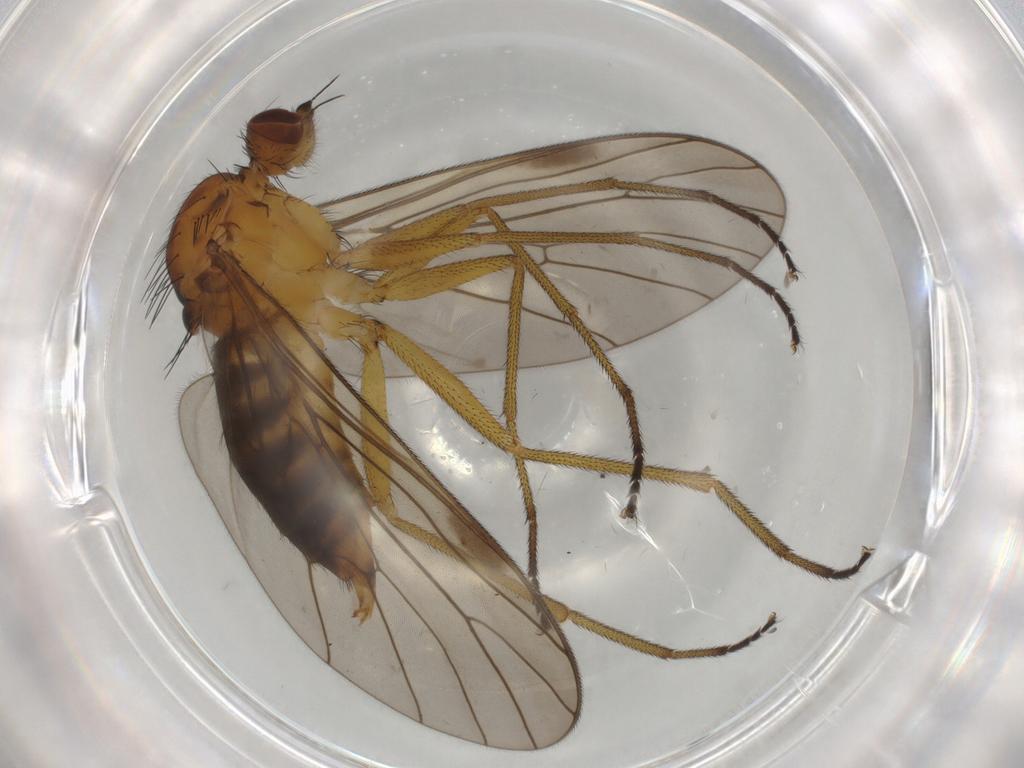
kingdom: Animalia
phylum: Arthropoda
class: Insecta
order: Diptera
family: Brachystomatidae
